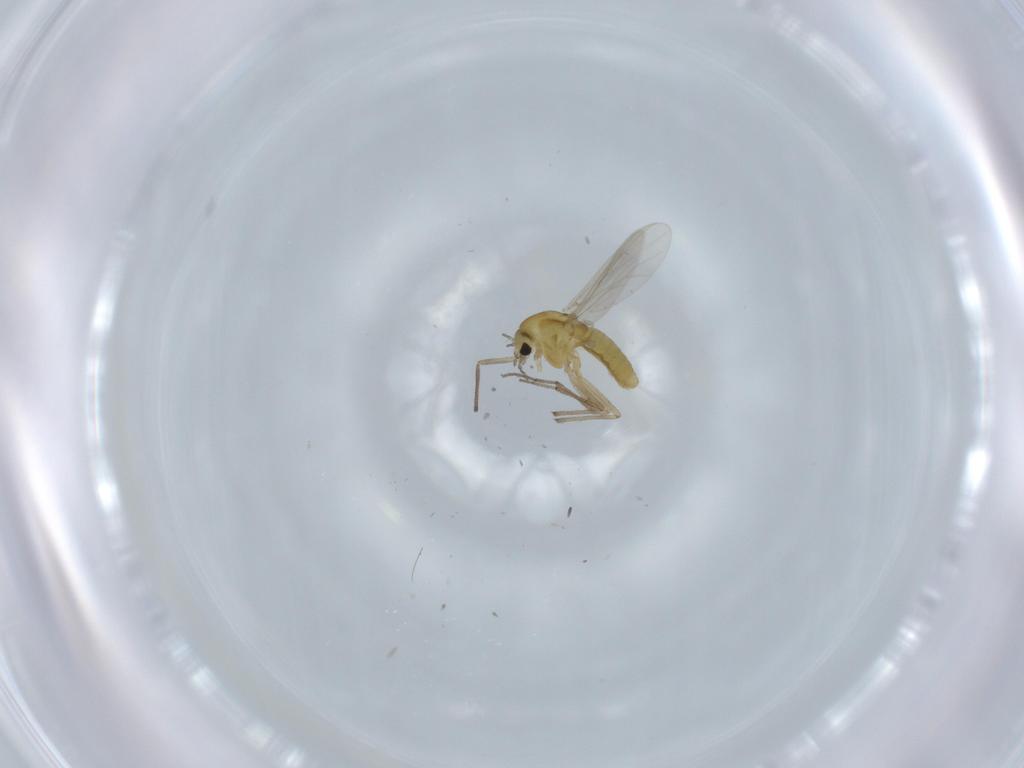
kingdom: Animalia
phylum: Arthropoda
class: Insecta
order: Diptera
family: Chironomidae
